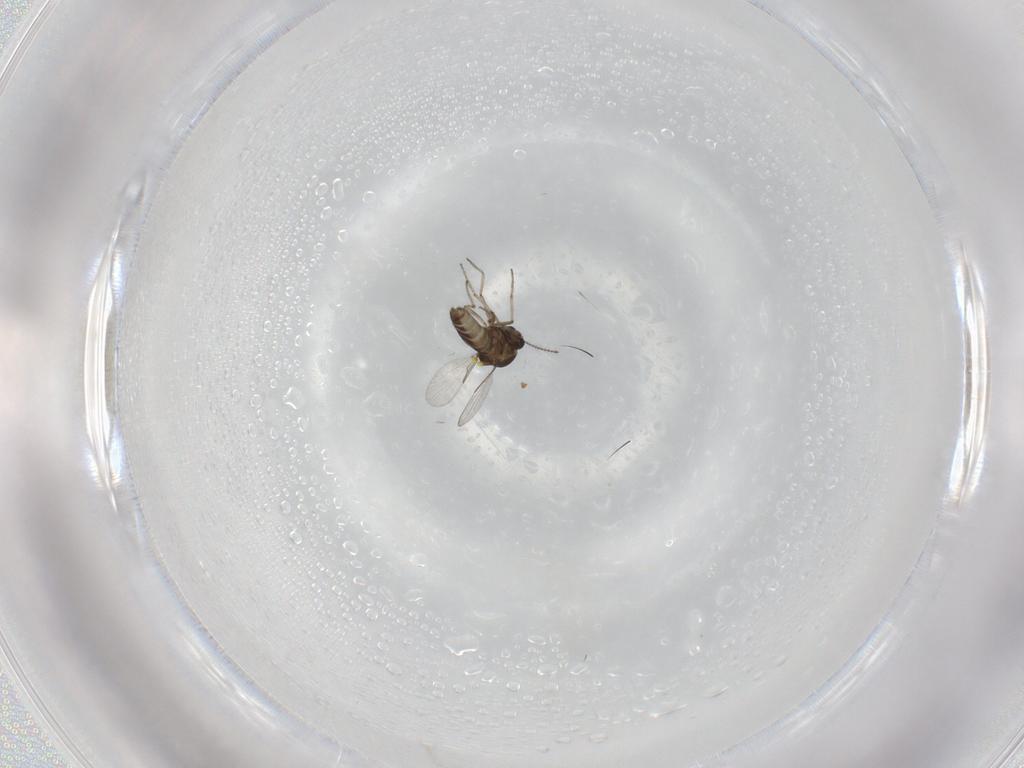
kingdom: Animalia
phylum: Arthropoda
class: Insecta
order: Diptera
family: Ceratopogonidae
